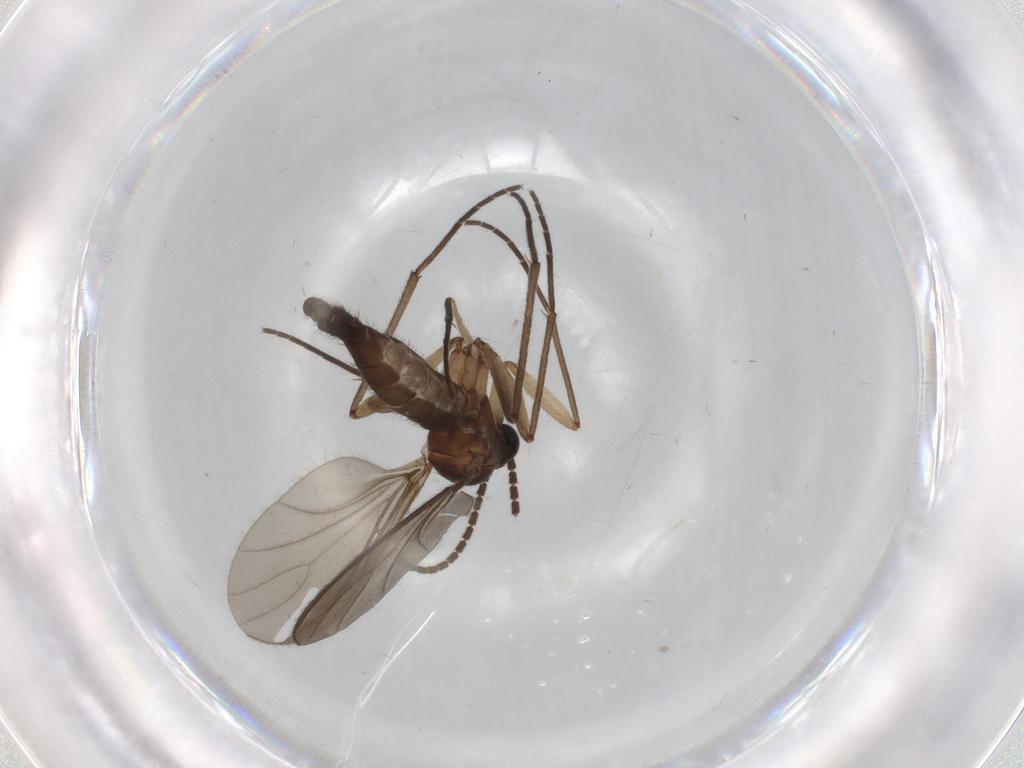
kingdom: Animalia
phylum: Arthropoda
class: Insecta
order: Diptera
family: Sciaridae
